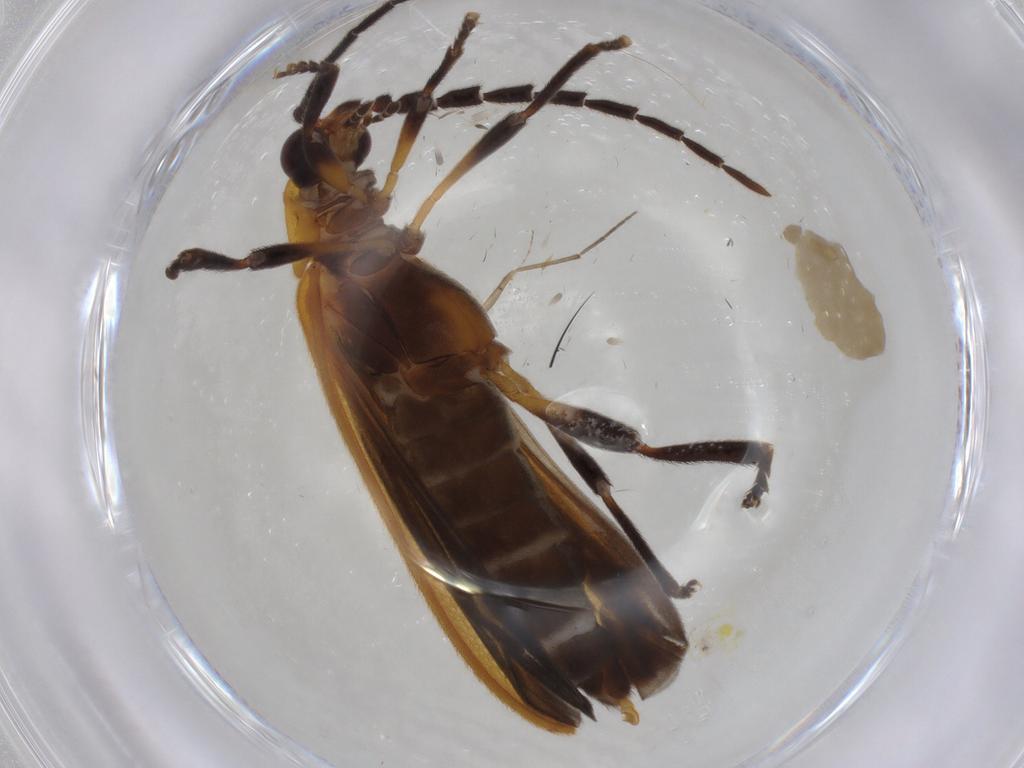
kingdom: Animalia
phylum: Arthropoda
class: Insecta
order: Coleoptera
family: Lycidae
